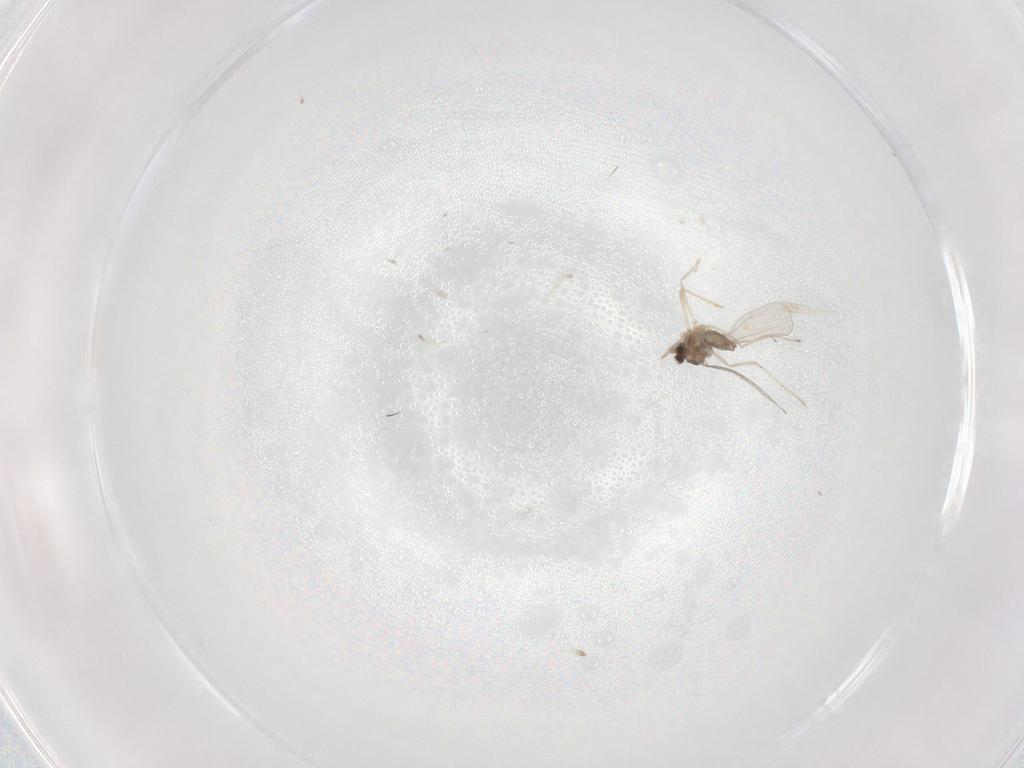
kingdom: Animalia
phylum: Arthropoda
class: Insecta
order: Diptera
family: Cecidomyiidae
